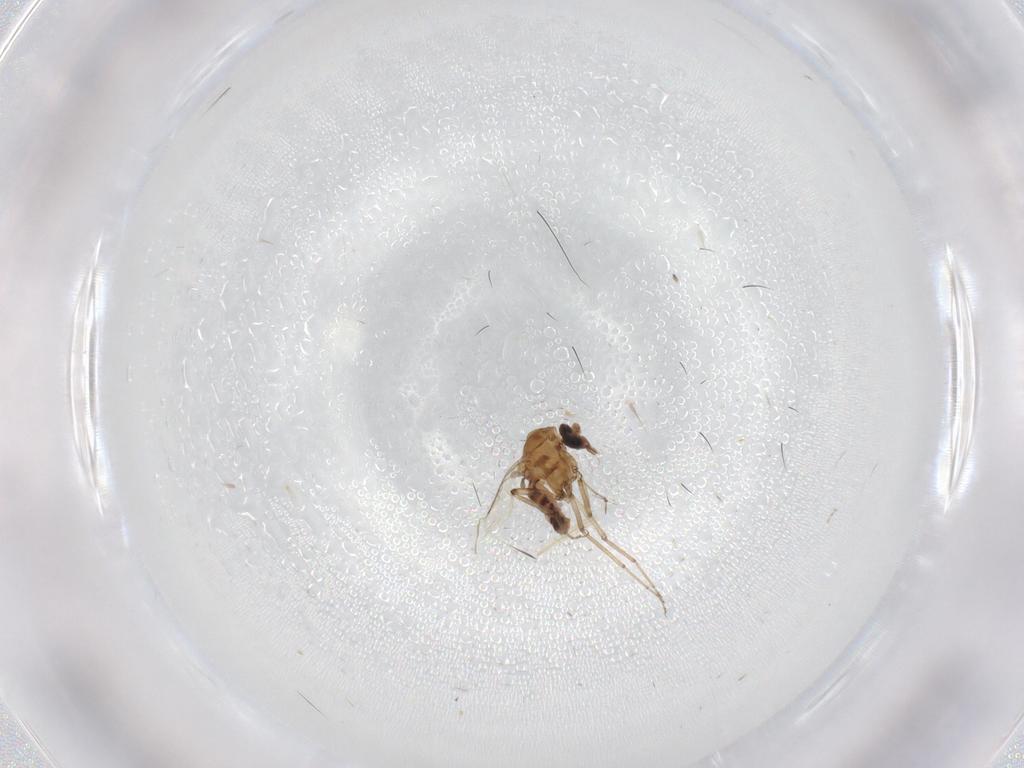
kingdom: Animalia
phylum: Arthropoda
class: Insecta
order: Diptera
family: Ceratopogonidae
